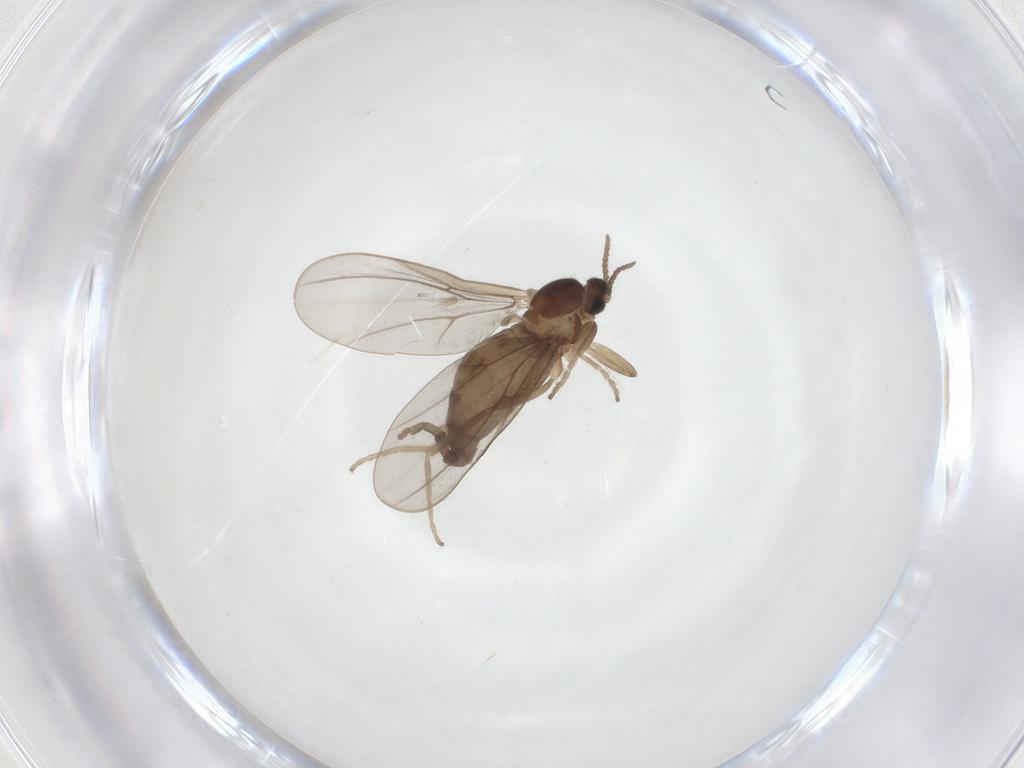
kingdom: Animalia
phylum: Arthropoda
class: Insecta
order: Diptera
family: Cecidomyiidae
